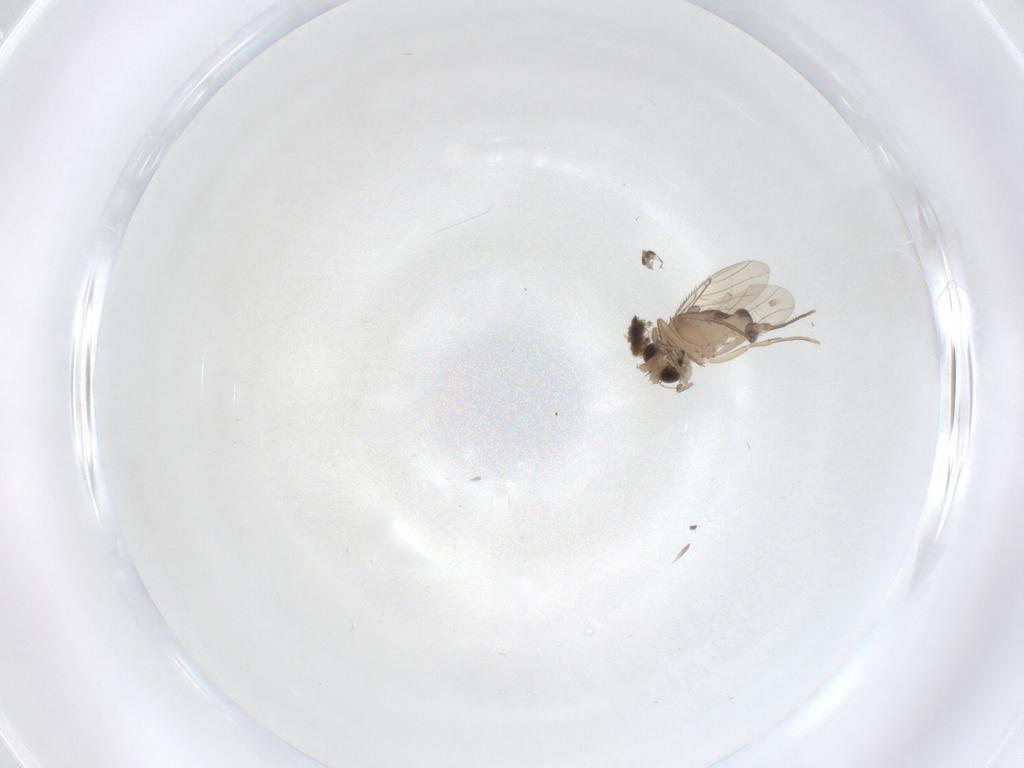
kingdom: Animalia
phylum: Arthropoda
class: Insecta
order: Diptera
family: Phoridae
